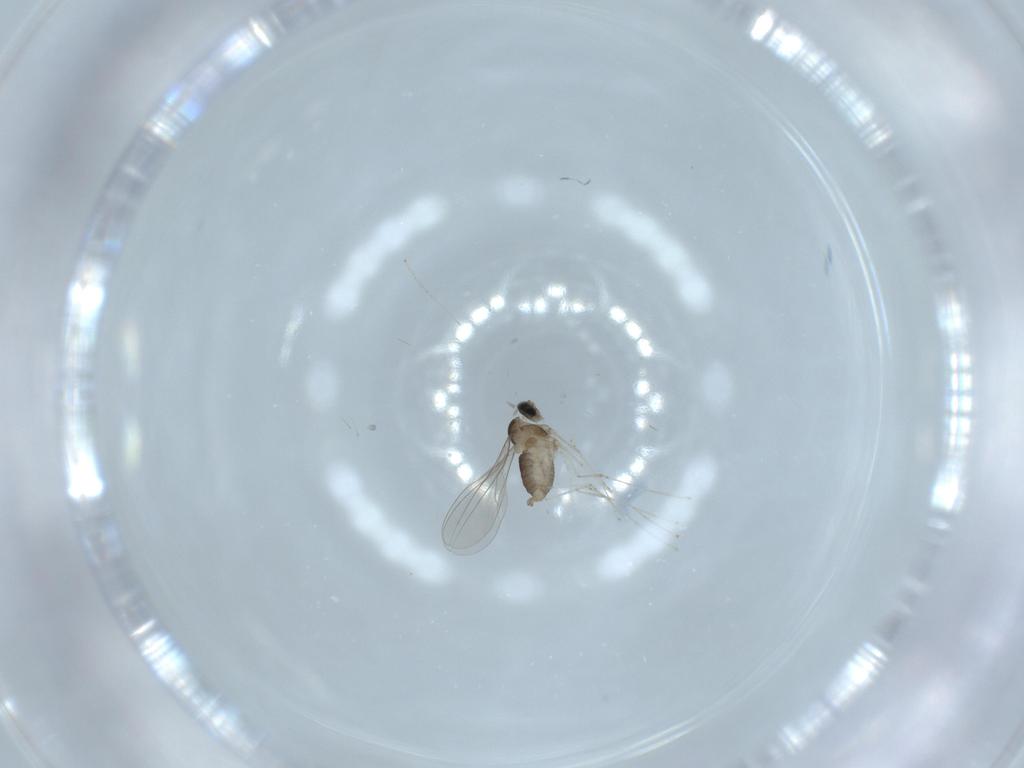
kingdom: Animalia
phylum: Arthropoda
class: Insecta
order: Diptera
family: Cecidomyiidae
